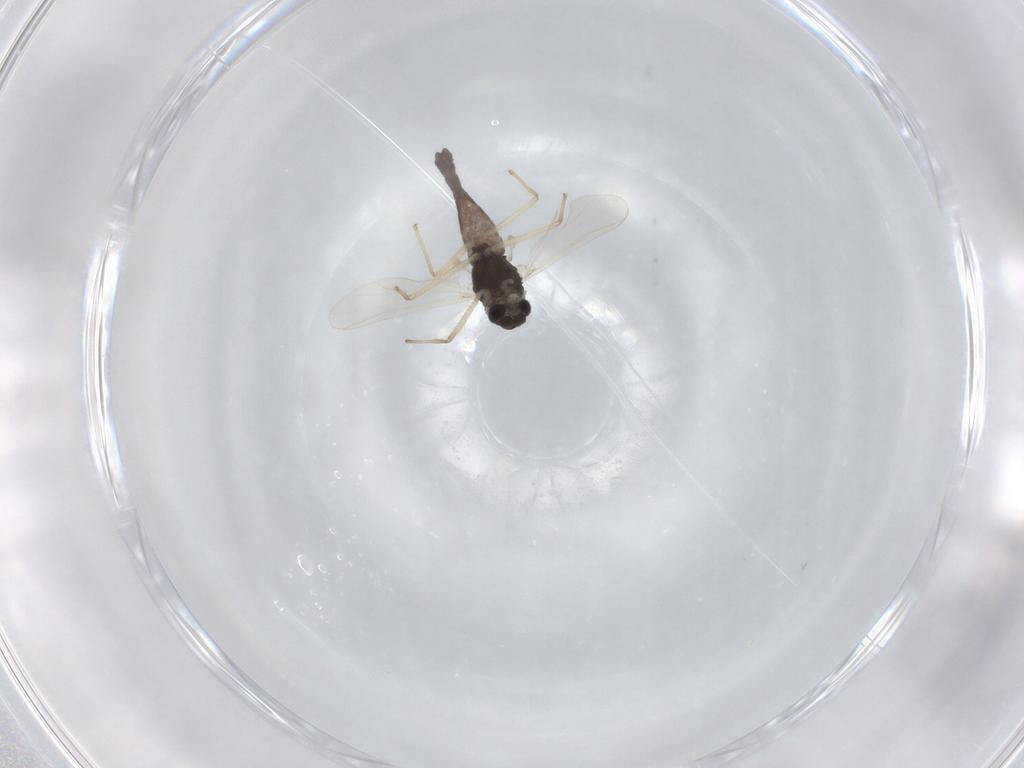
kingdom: Animalia
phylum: Arthropoda
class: Insecta
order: Diptera
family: Chironomidae
